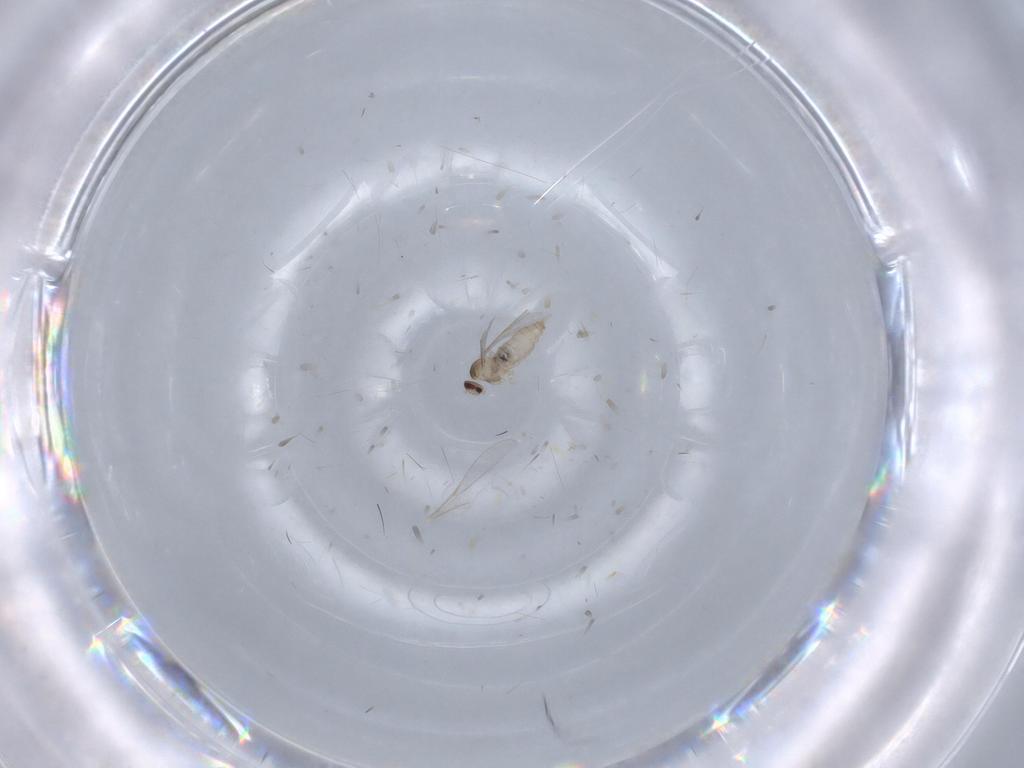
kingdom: Animalia
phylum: Arthropoda
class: Insecta
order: Diptera
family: Cecidomyiidae
